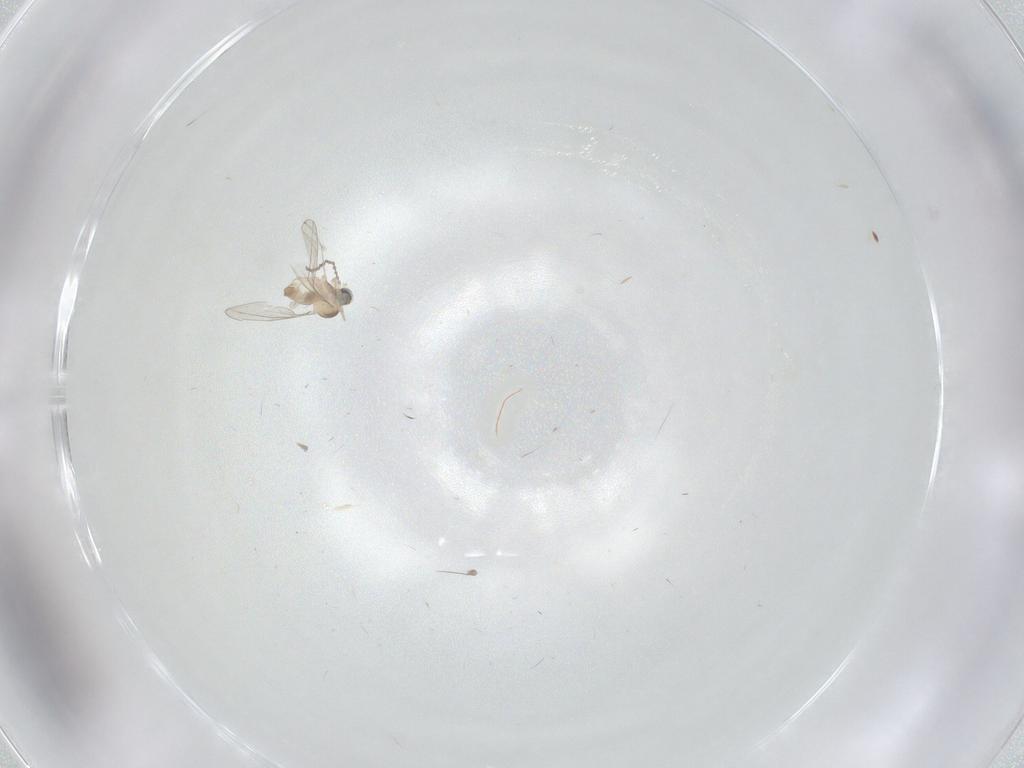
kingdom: Animalia
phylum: Arthropoda
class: Insecta
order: Diptera
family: Cecidomyiidae
